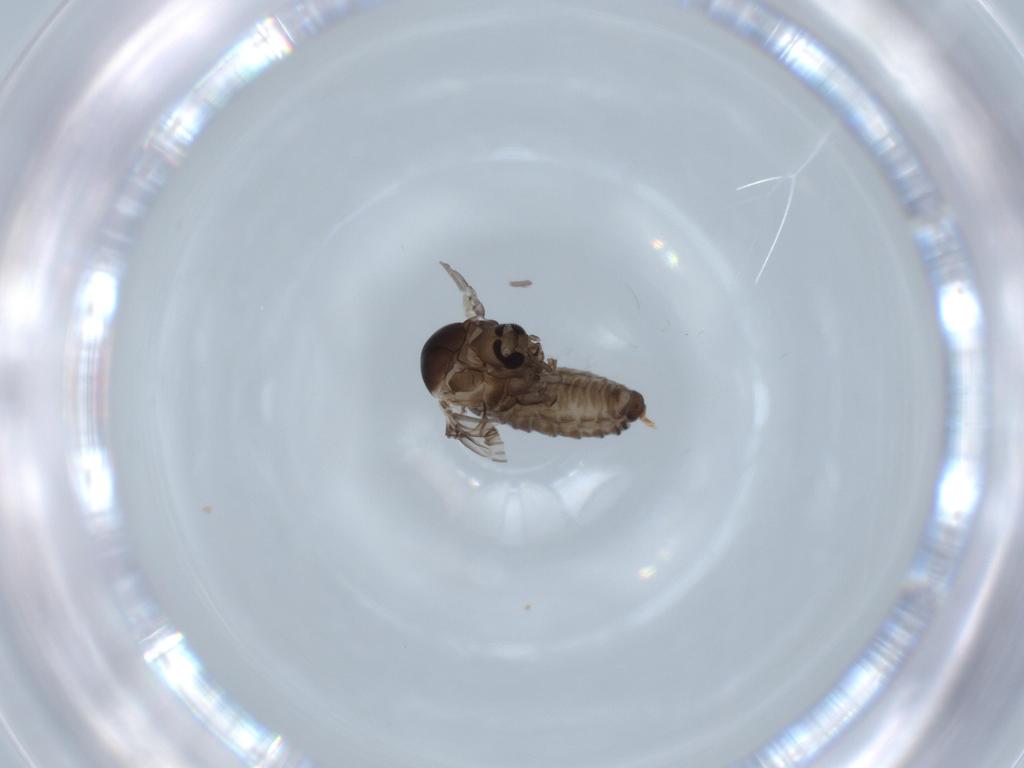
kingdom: Animalia
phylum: Arthropoda
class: Insecta
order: Diptera
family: Psychodidae
